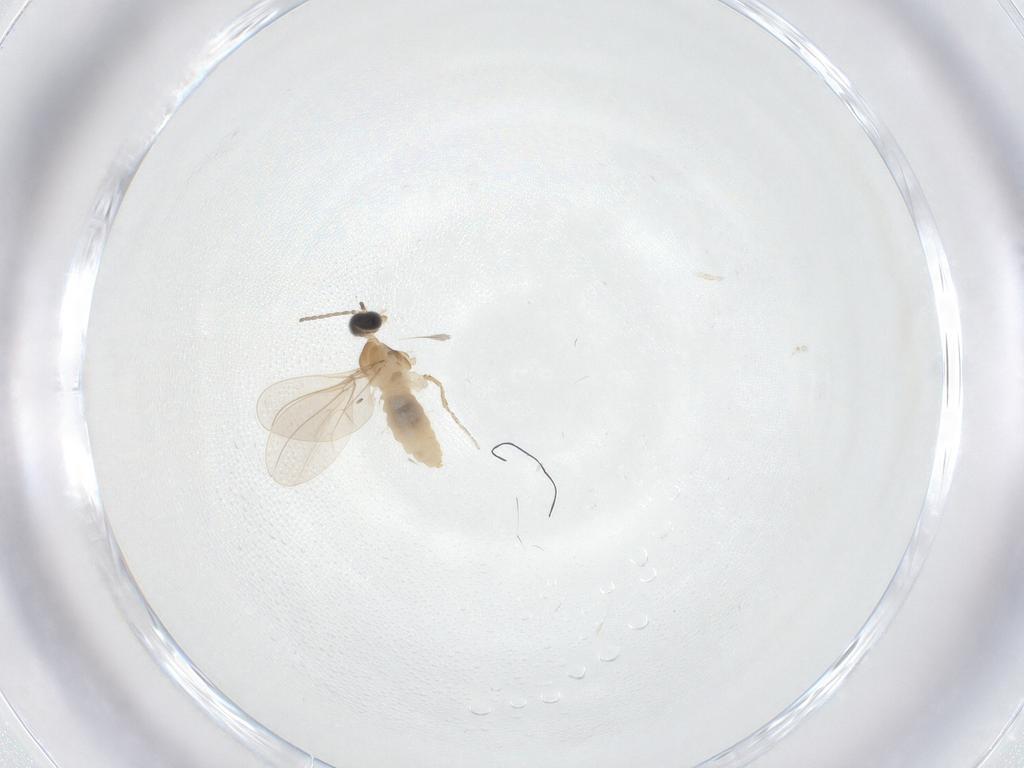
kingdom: Animalia
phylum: Arthropoda
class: Insecta
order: Diptera
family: Cecidomyiidae
